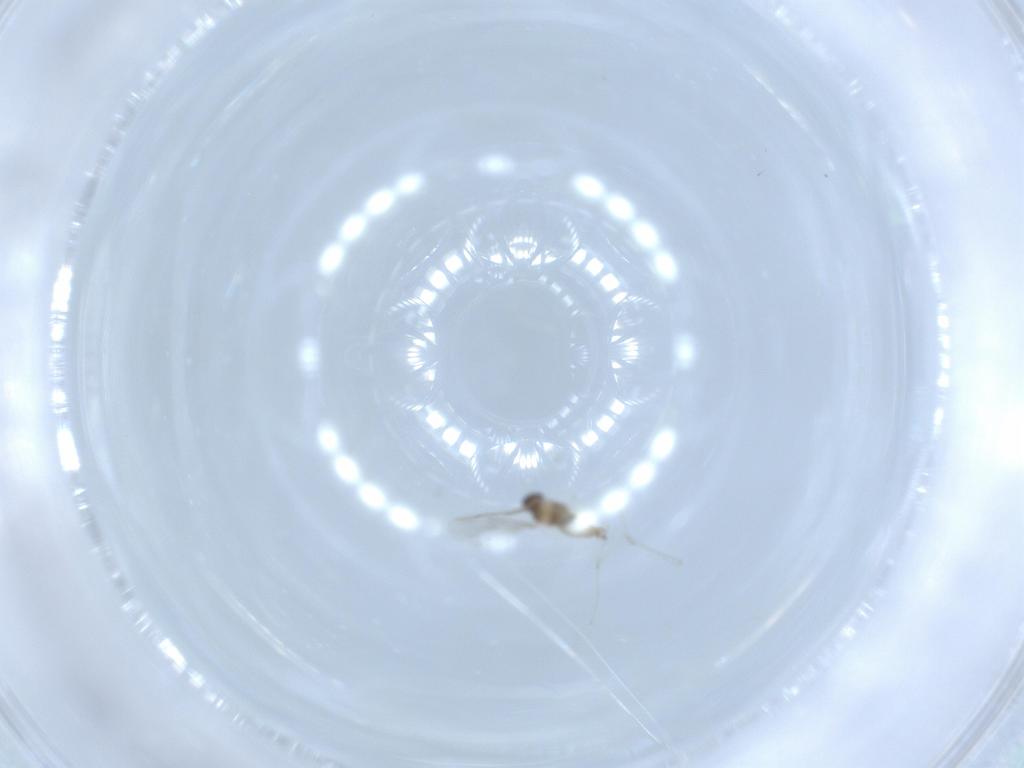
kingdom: Animalia
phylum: Arthropoda
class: Insecta
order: Diptera
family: Cecidomyiidae
